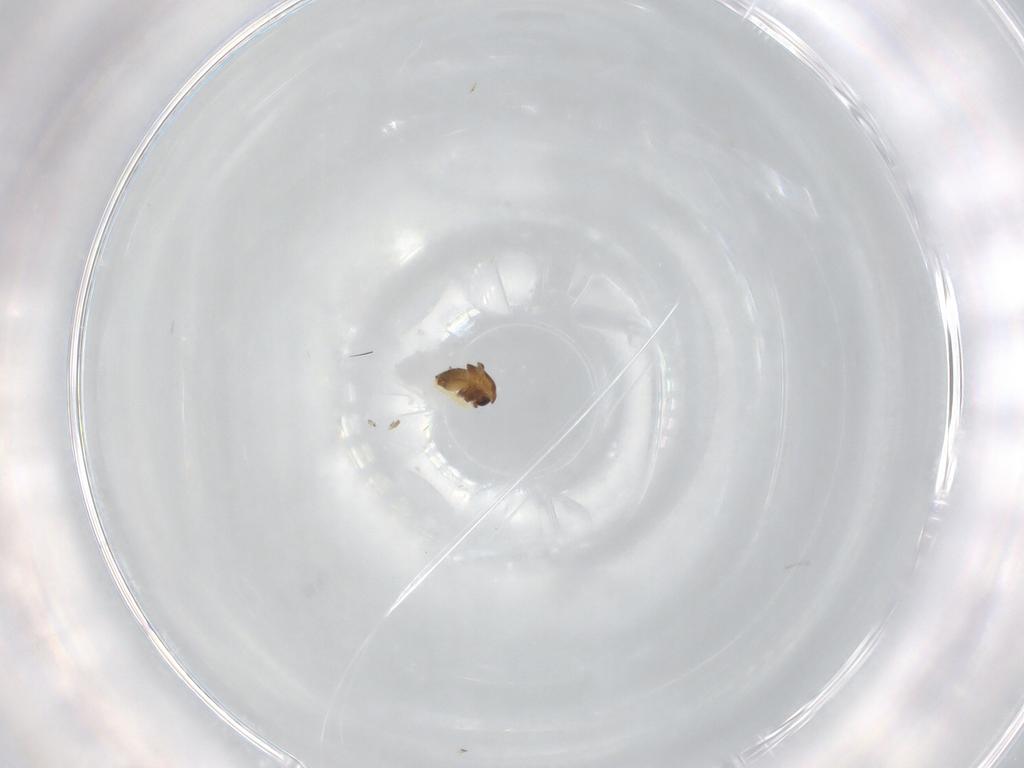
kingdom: Animalia
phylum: Arthropoda
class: Insecta
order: Diptera
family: Chironomidae
